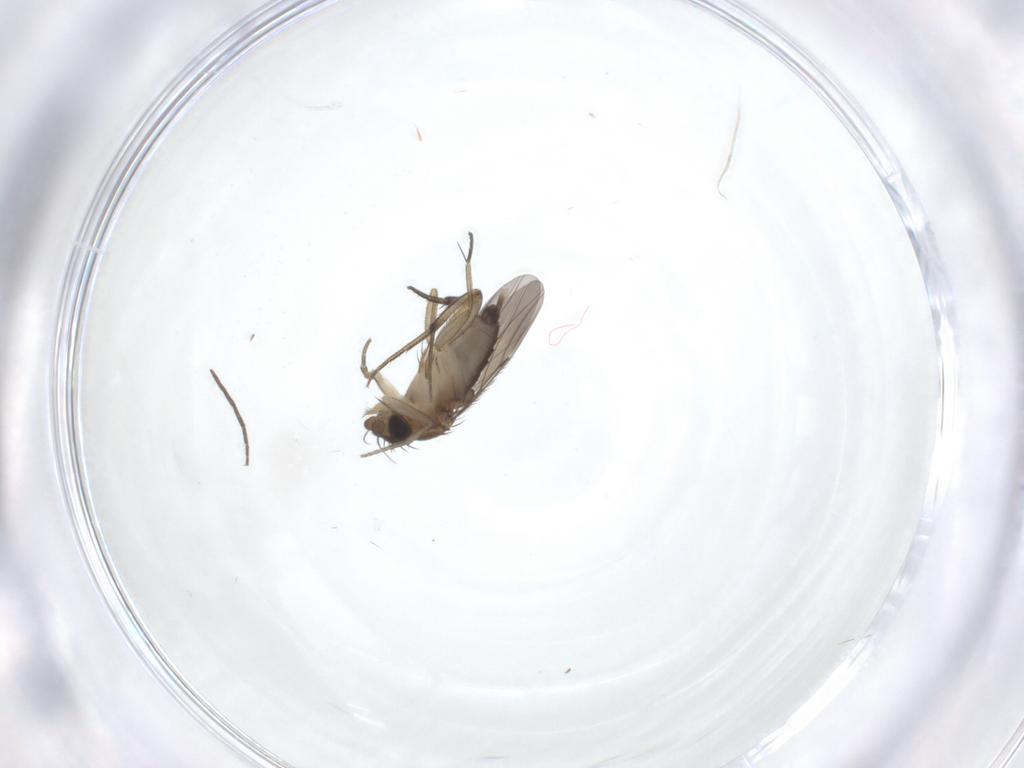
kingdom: Animalia
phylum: Arthropoda
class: Insecta
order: Diptera
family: Phoridae
